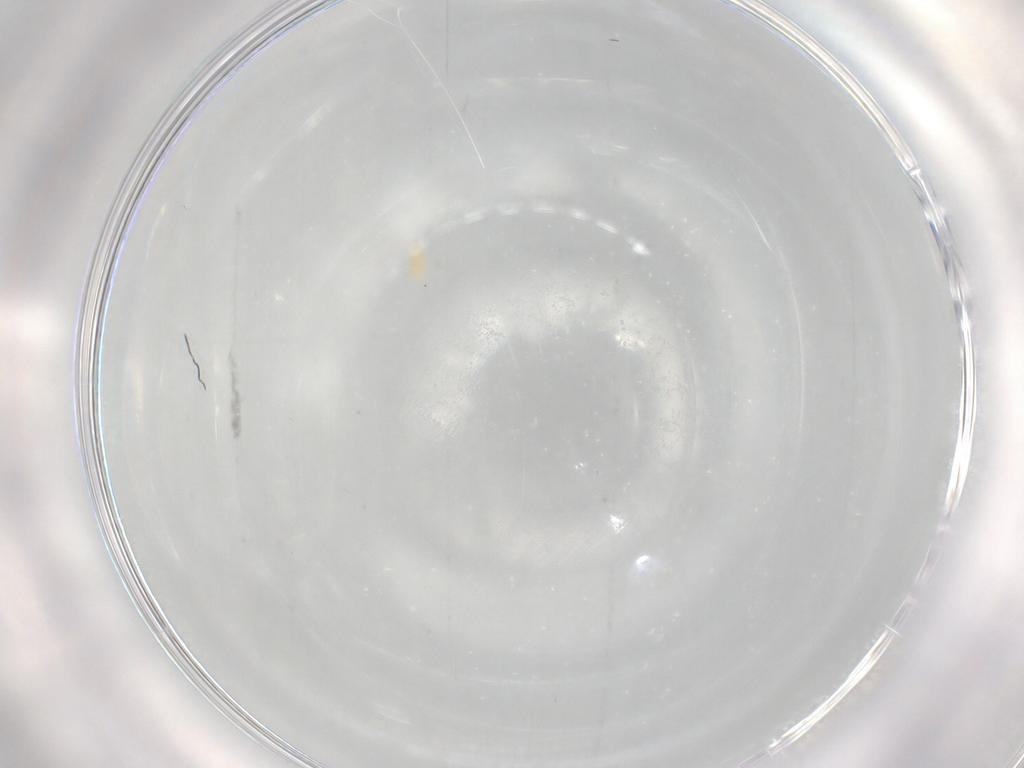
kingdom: Animalia
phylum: Arthropoda
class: Arachnida
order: Trombidiformes
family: Tetranychidae
